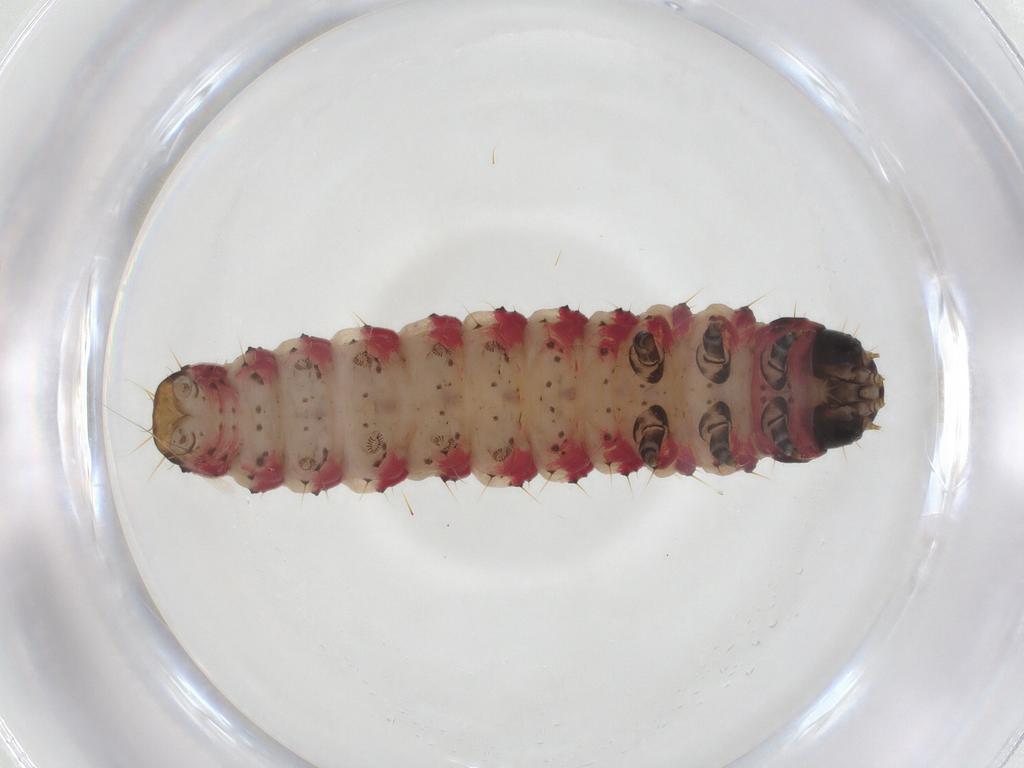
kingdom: Animalia
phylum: Arthropoda
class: Insecta
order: Lepidoptera
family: Gelechiidae
